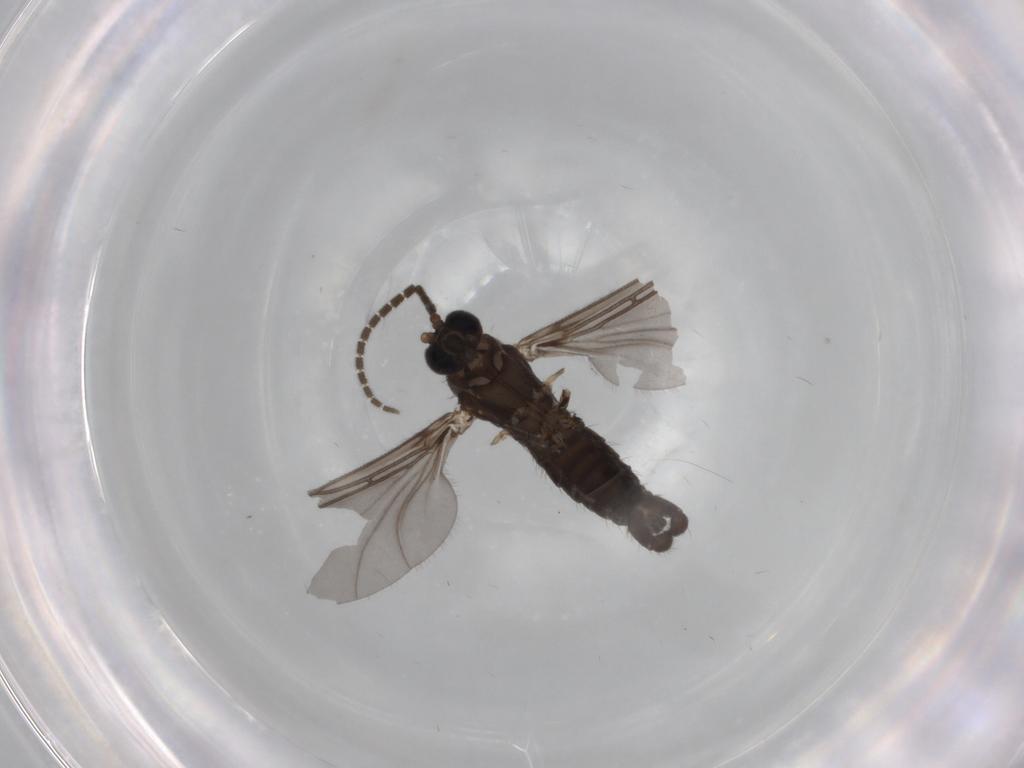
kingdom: Animalia
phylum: Arthropoda
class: Insecta
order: Diptera
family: Sciaridae
